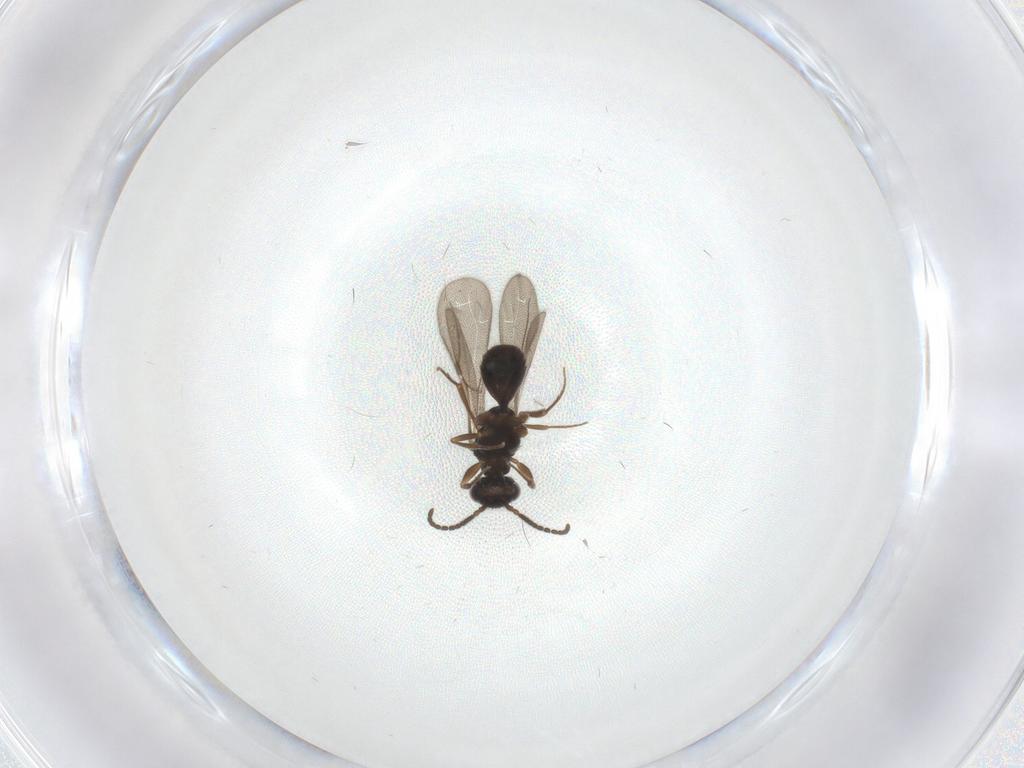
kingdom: Animalia
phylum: Arthropoda
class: Insecta
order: Hymenoptera
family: Bethylidae
